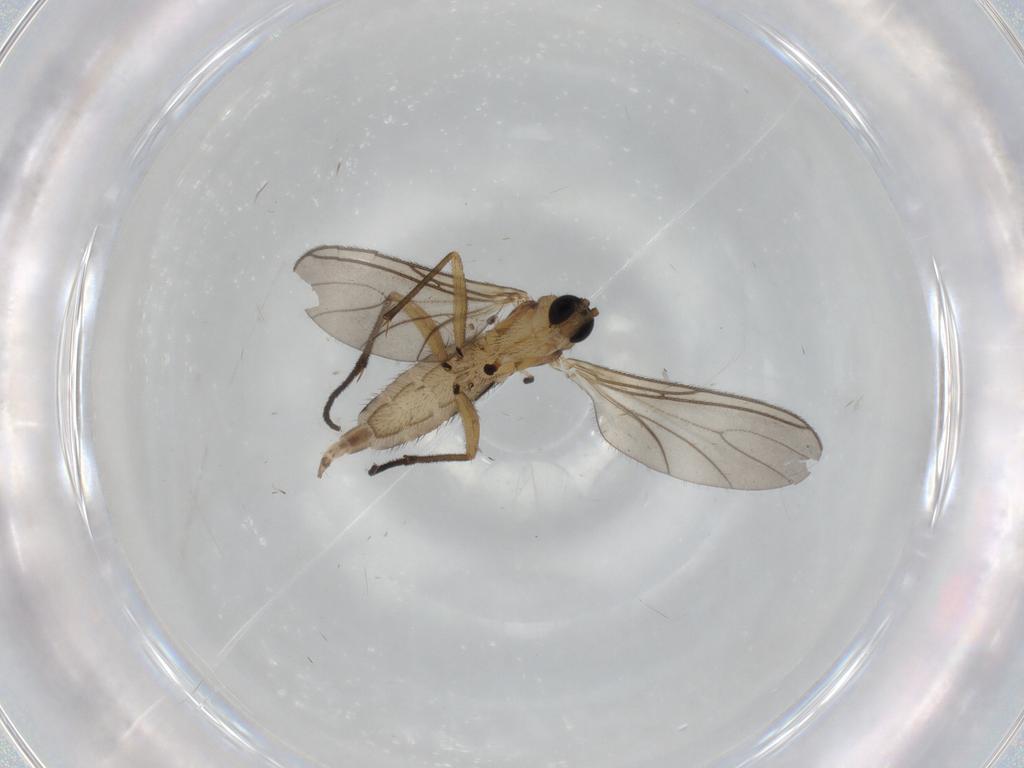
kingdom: Animalia
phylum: Arthropoda
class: Insecta
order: Diptera
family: Sciaridae
